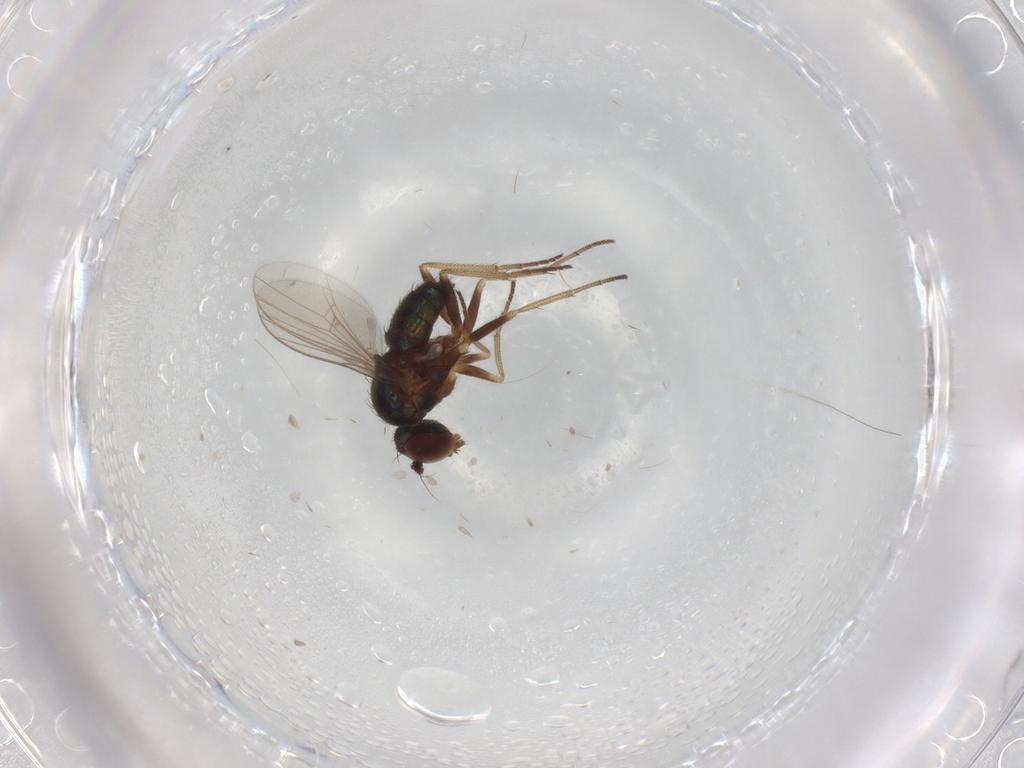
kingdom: Animalia
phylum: Arthropoda
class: Insecta
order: Diptera
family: Dolichopodidae
